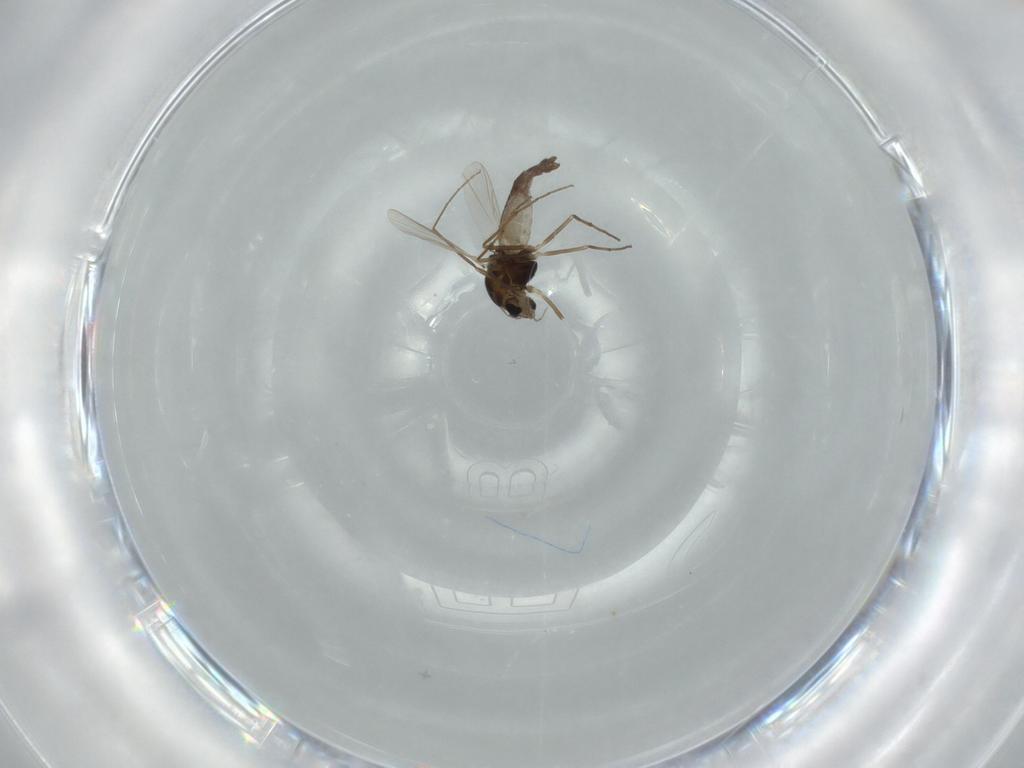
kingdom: Animalia
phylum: Arthropoda
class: Insecta
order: Diptera
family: Chironomidae
